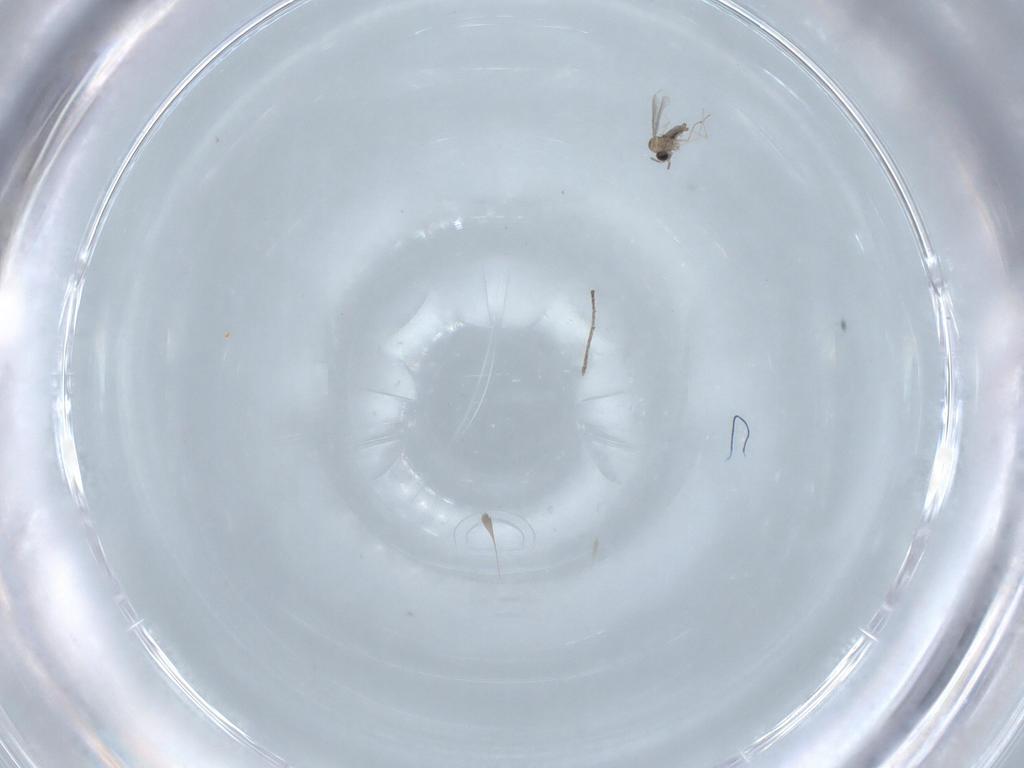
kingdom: Animalia
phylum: Arthropoda
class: Insecta
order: Diptera
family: Cecidomyiidae
